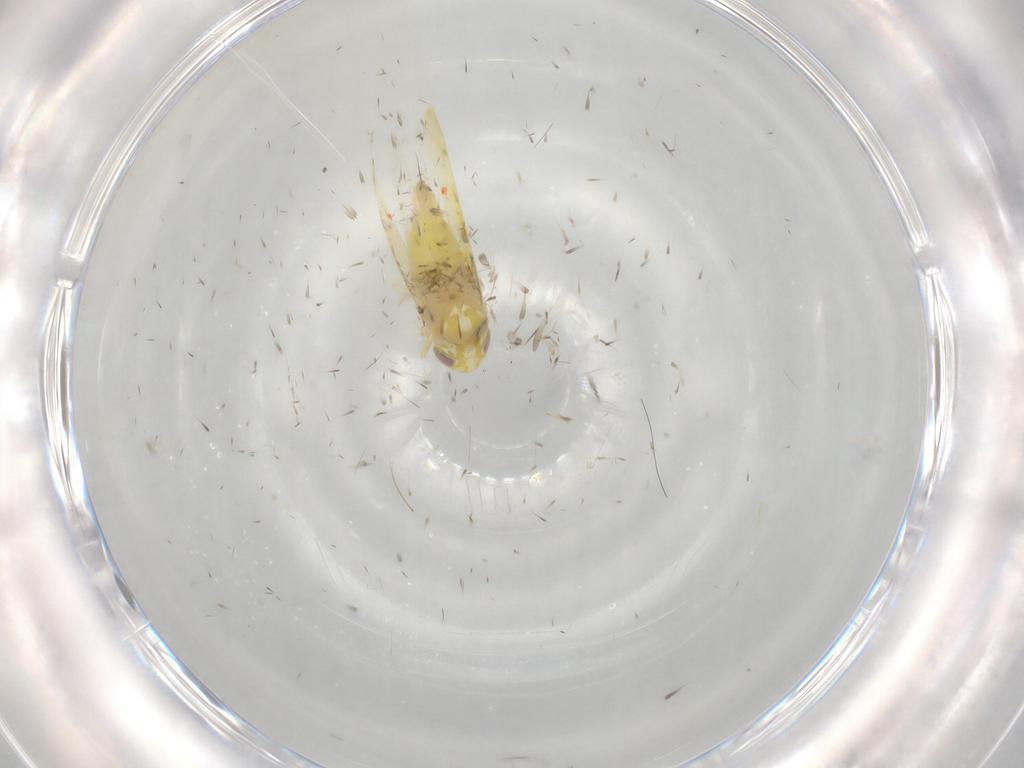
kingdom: Animalia
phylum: Arthropoda
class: Insecta
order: Hemiptera
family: Cicadellidae
